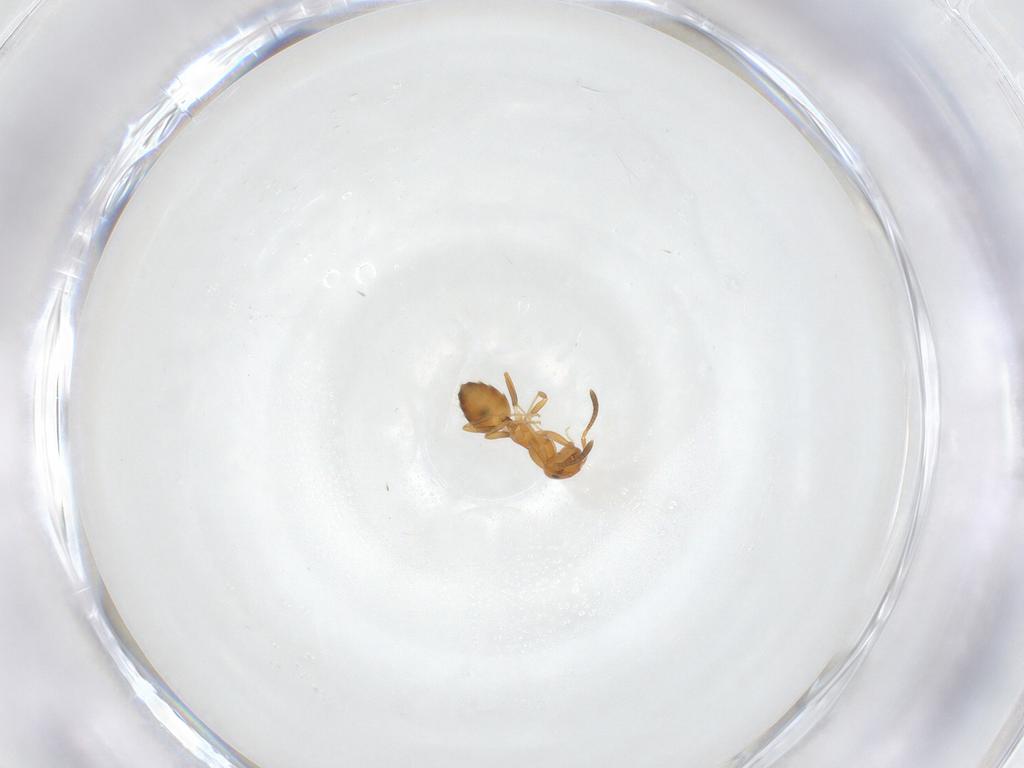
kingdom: Animalia
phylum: Arthropoda
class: Insecta
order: Hymenoptera
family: Formicidae
